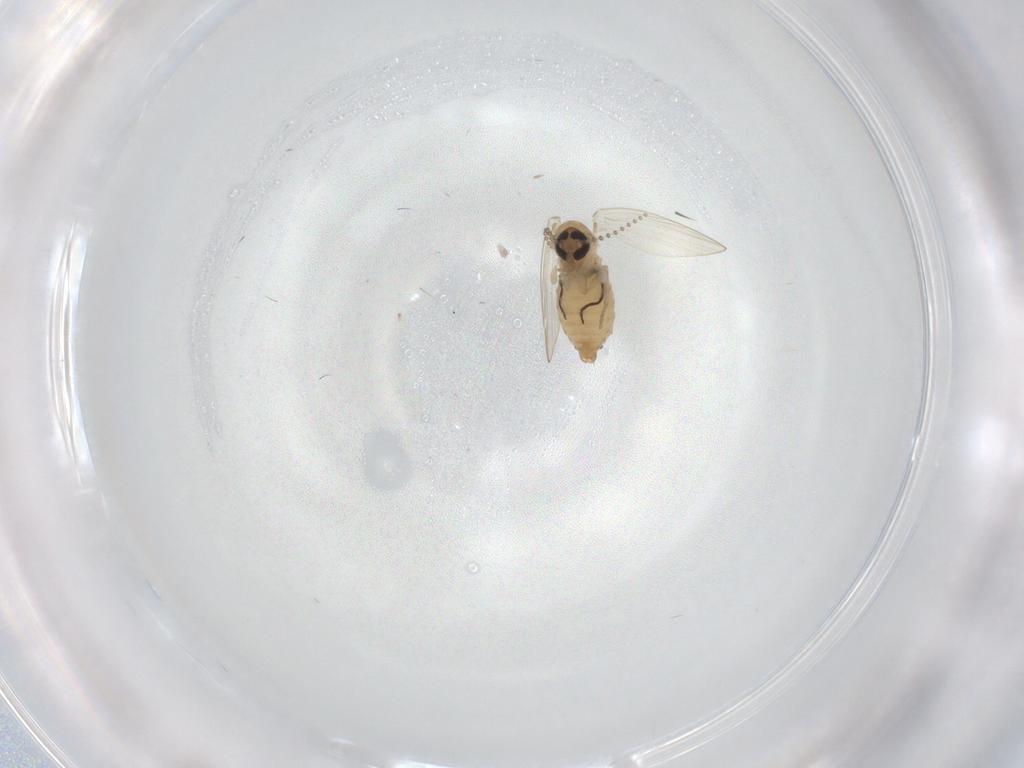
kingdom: Animalia
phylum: Arthropoda
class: Insecta
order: Diptera
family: Psychodidae
